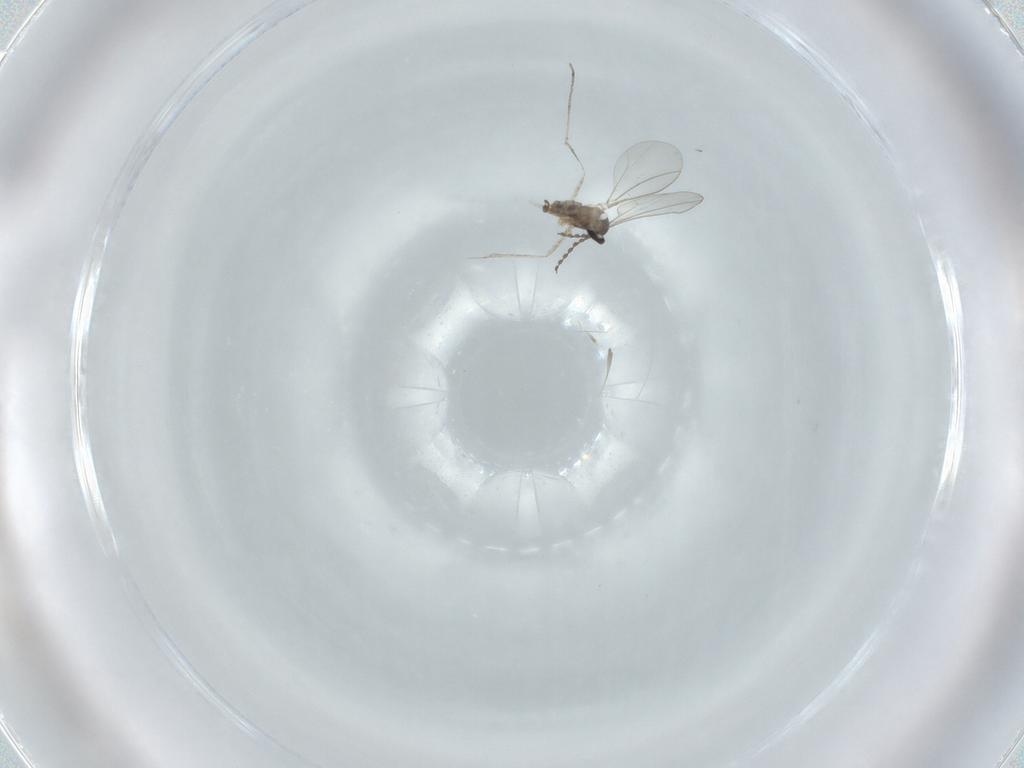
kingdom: Animalia
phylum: Arthropoda
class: Insecta
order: Diptera
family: Cecidomyiidae
